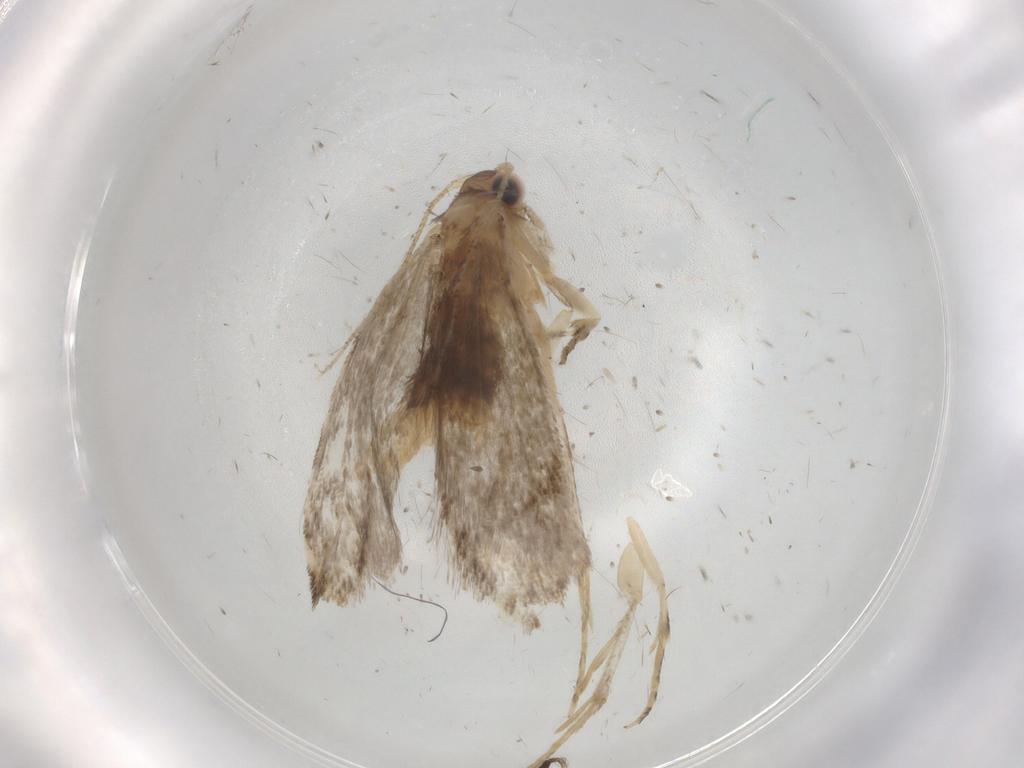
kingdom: Animalia
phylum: Arthropoda
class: Insecta
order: Lepidoptera
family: Tineidae
